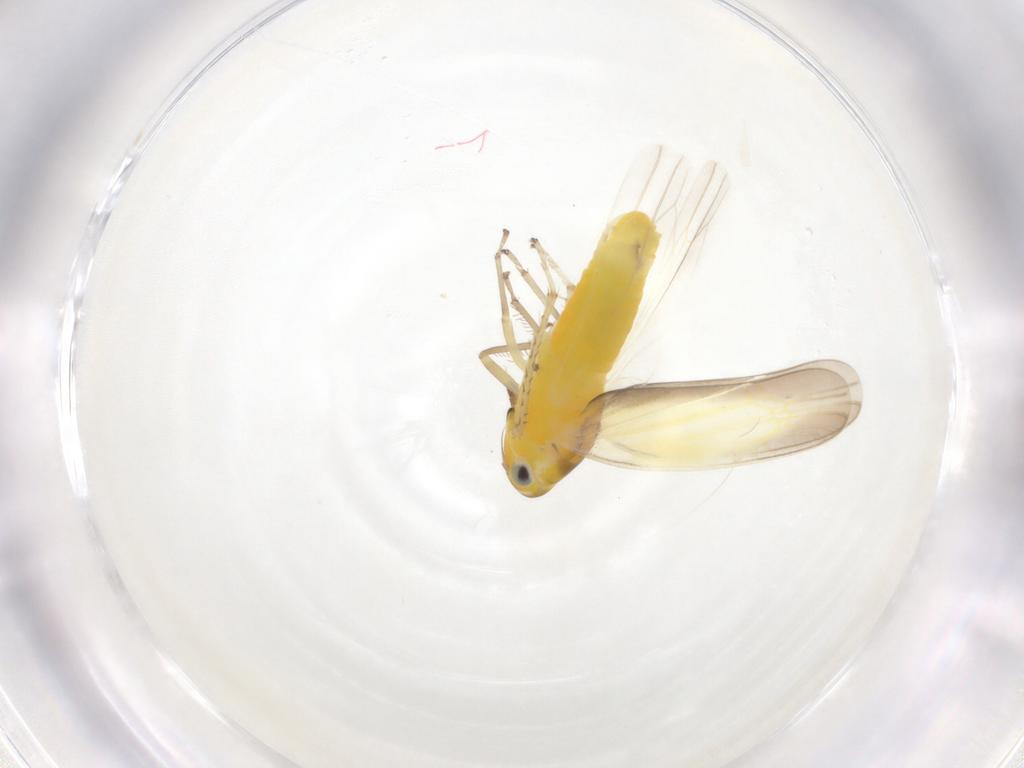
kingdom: Animalia
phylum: Arthropoda
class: Insecta
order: Hemiptera
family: Cicadellidae
